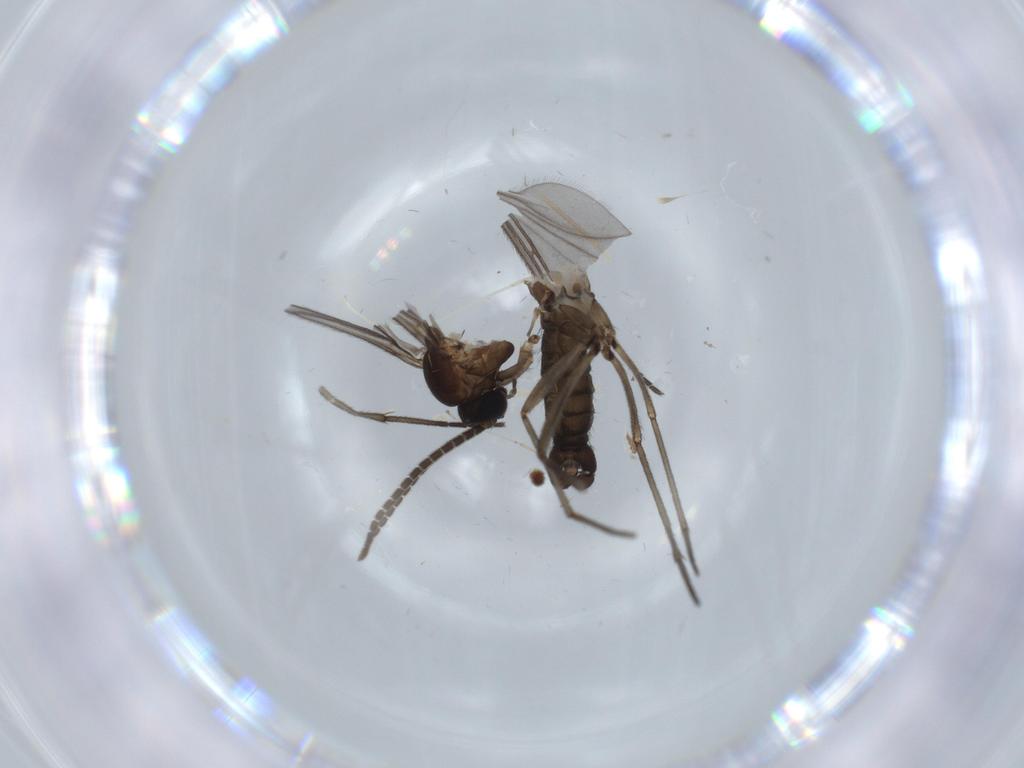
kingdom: Animalia
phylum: Arthropoda
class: Insecta
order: Diptera
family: Sciaridae
